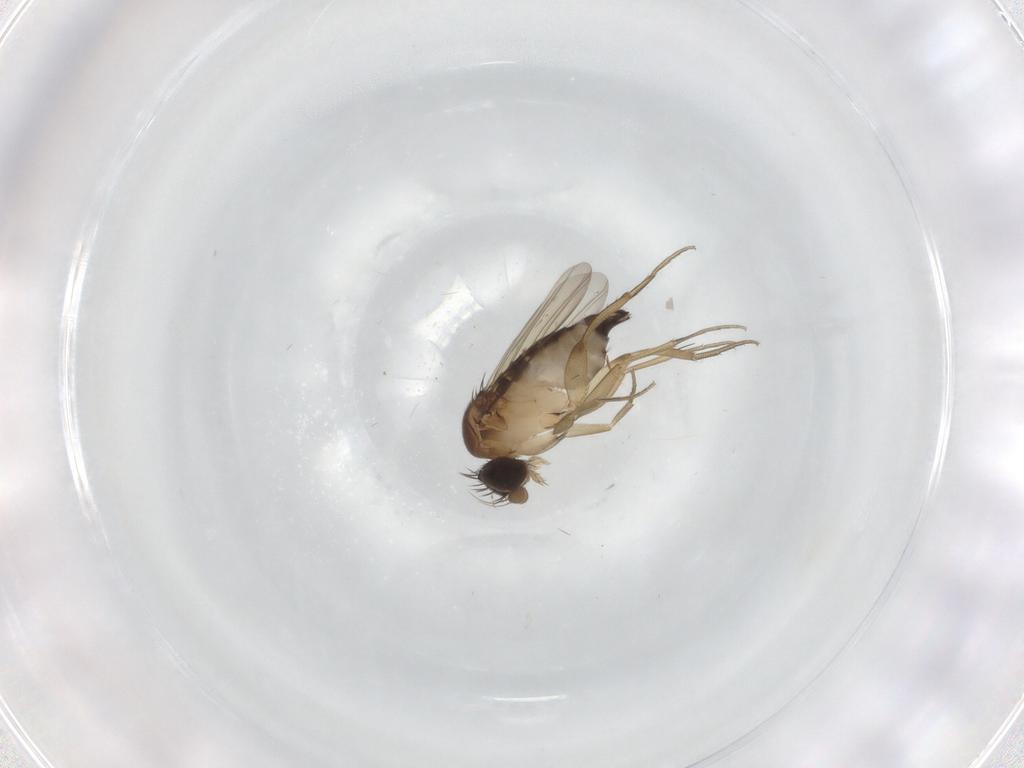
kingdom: Animalia
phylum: Arthropoda
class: Insecta
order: Diptera
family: Phoridae
